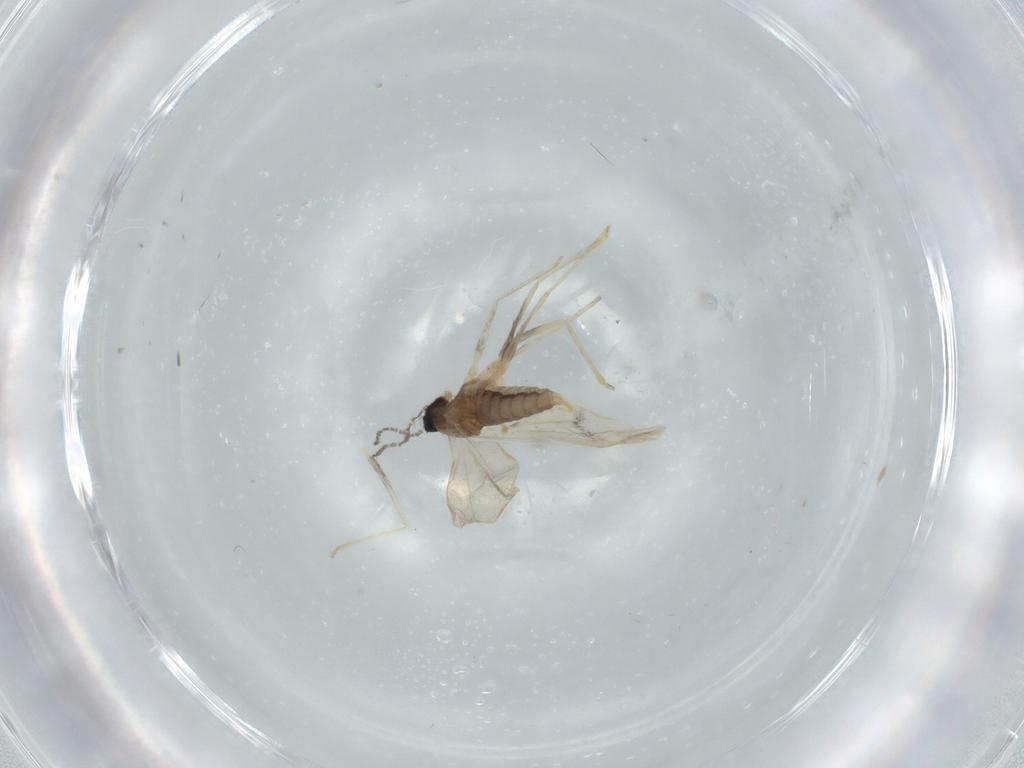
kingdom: Animalia
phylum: Arthropoda
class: Insecta
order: Diptera
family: Cecidomyiidae
